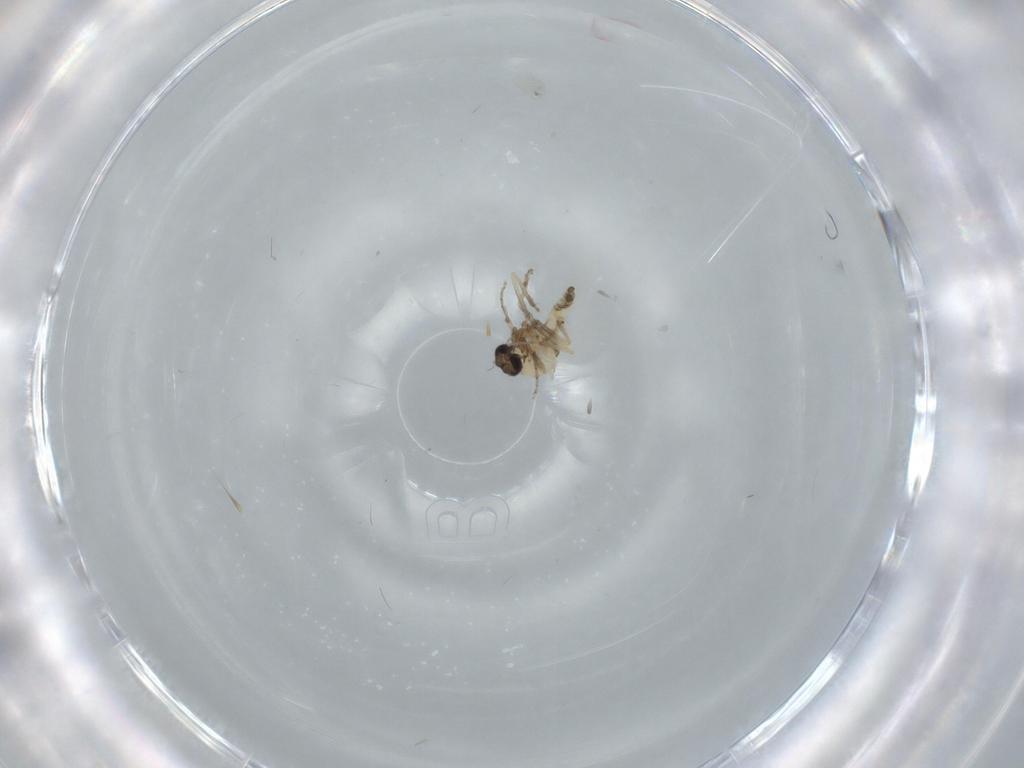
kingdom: Animalia
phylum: Arthropoda
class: Insecta
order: Diptera
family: Ceratopogonidae
